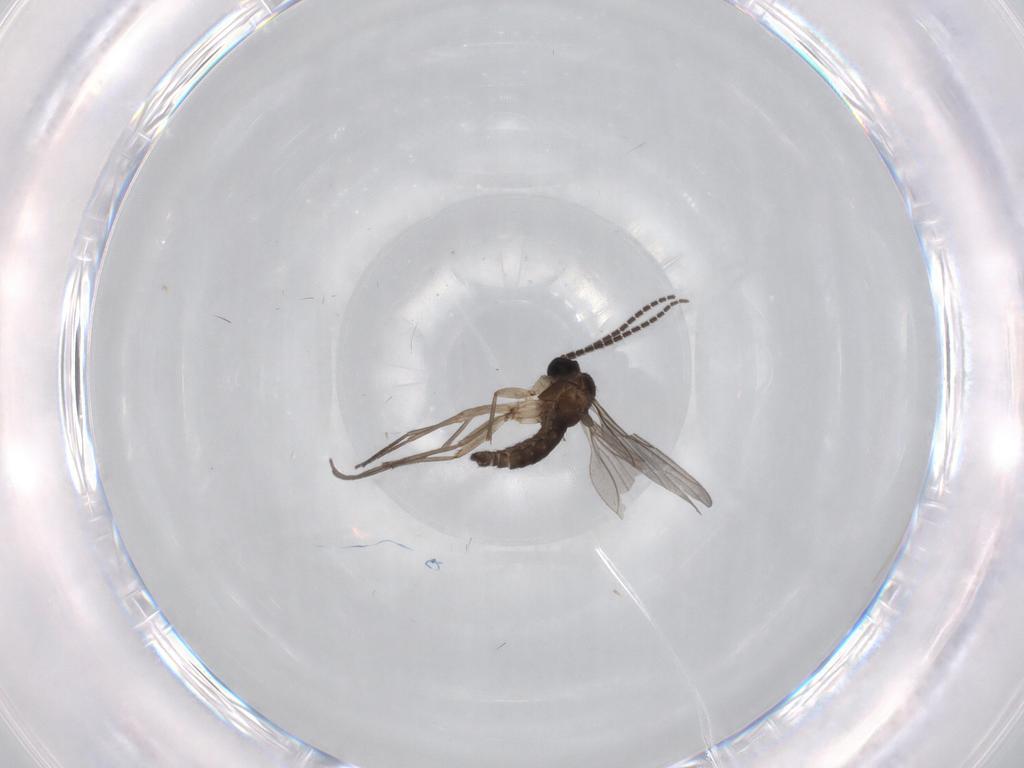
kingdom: Animalia
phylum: Arthropoda
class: Insecta
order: Diptera
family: Sciaridae
